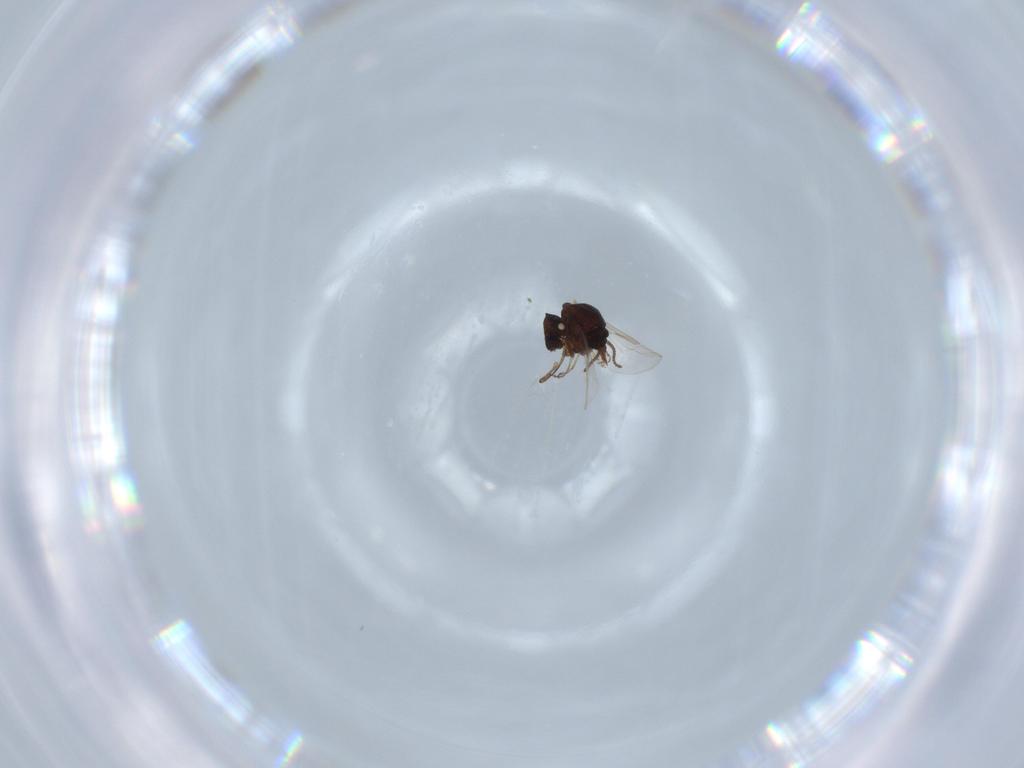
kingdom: Animalia
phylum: Arthropoda
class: Insecta
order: Diptera
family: Ceratopogonidae
